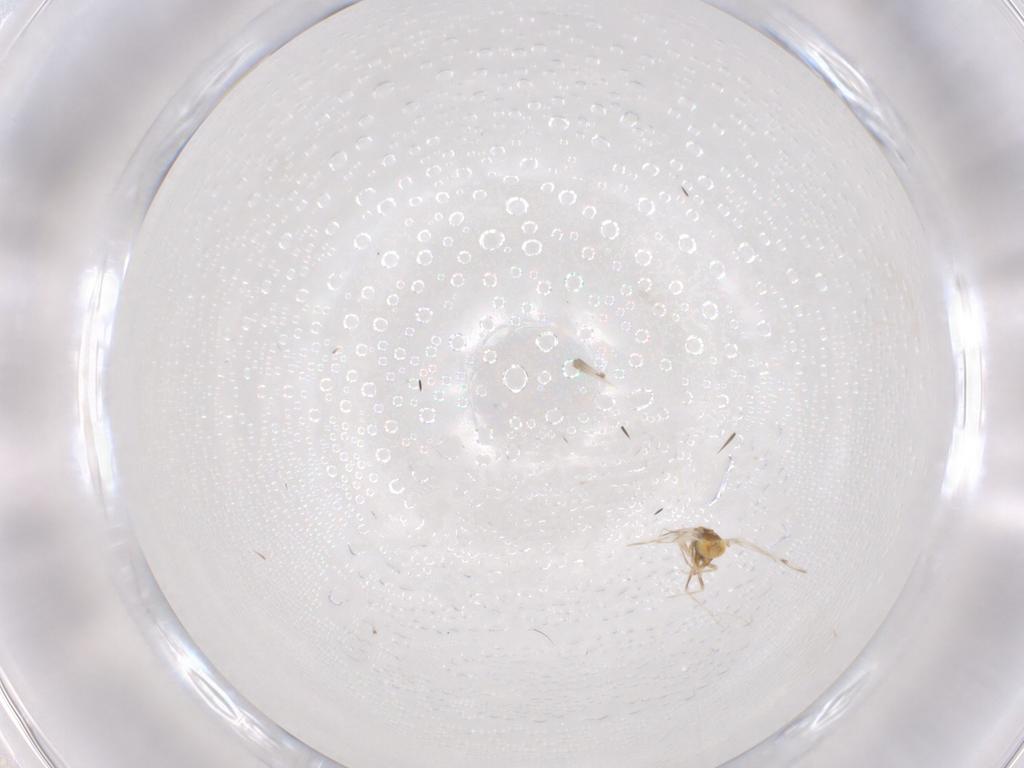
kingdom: Animalia
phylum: Arthropoda
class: Insecta
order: Hemiptera
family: Aleyrodidae
